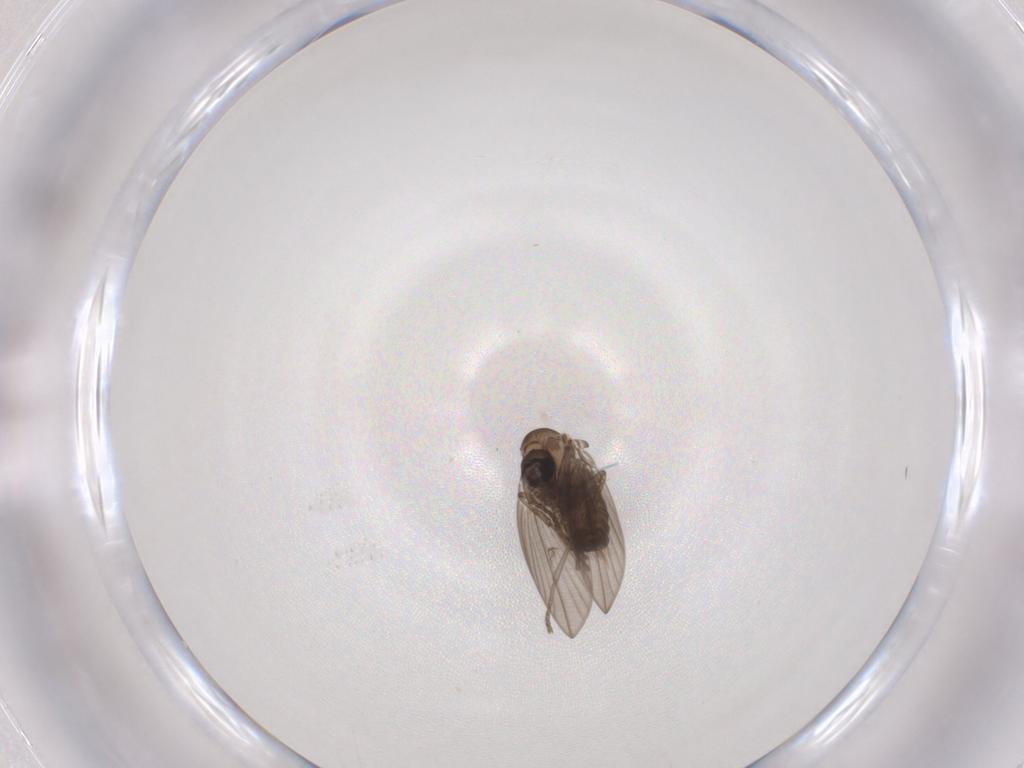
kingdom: Animalia
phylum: Arthropoda
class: Insecta
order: Diptera
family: Psychodidae
